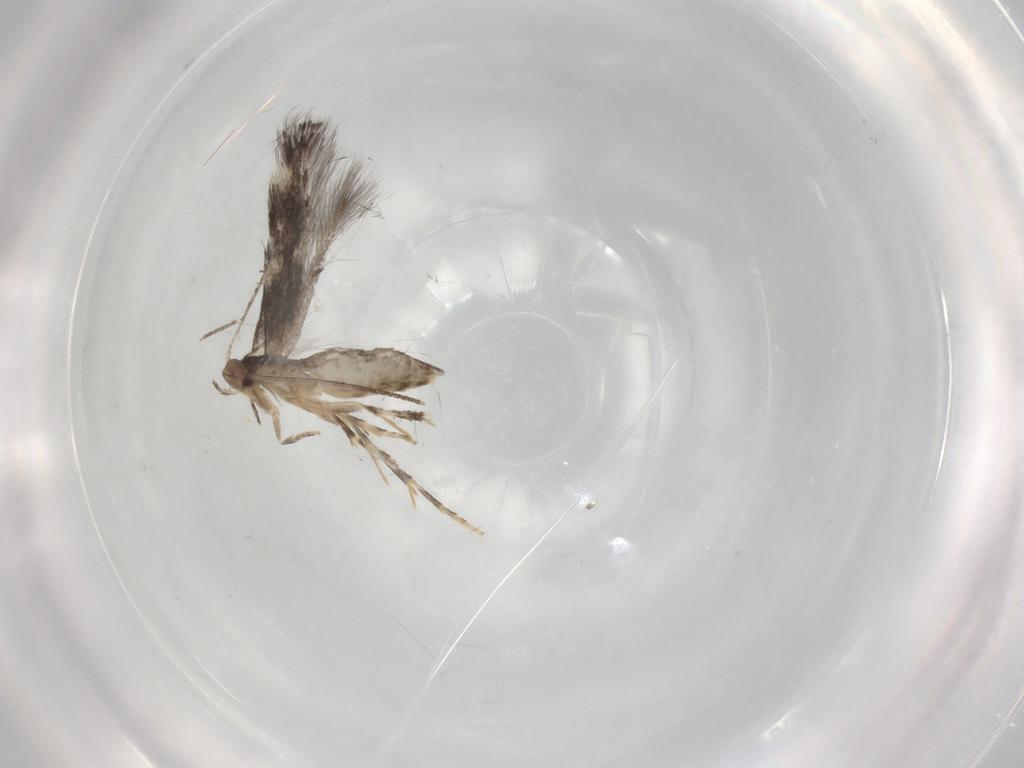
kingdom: Animalia
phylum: Arthropoda
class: Insecta
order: Lepidoptera
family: Elachistidae
